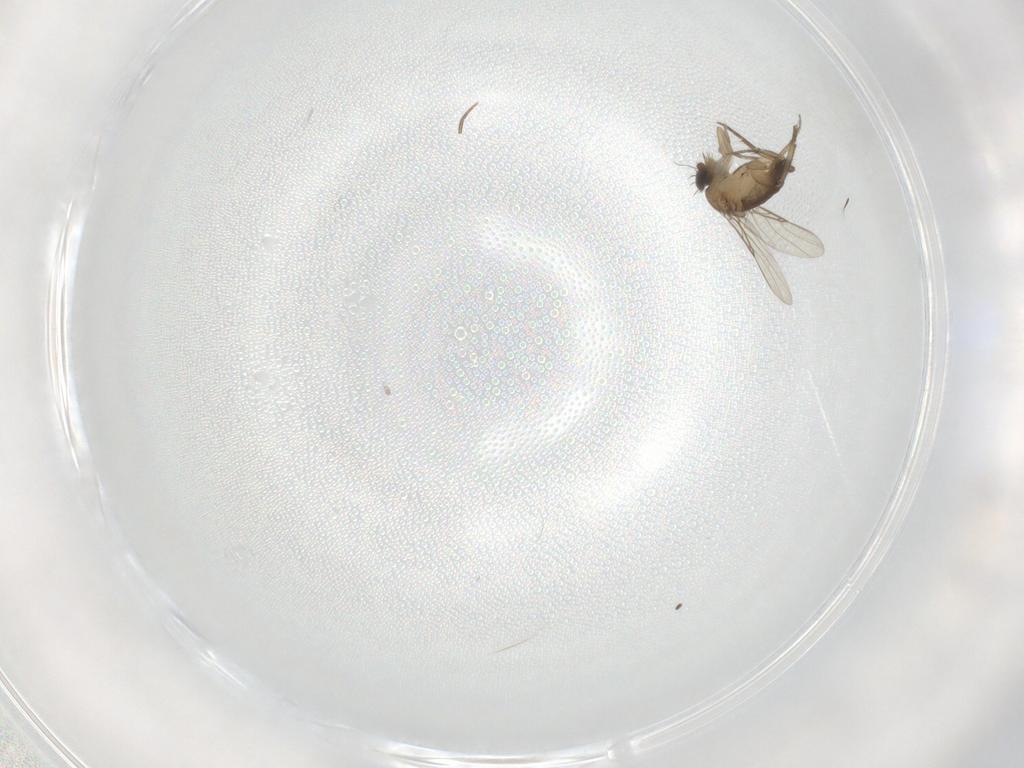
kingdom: Animalia
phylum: Arthropoda
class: Insecta
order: Diptera
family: Phoridae
